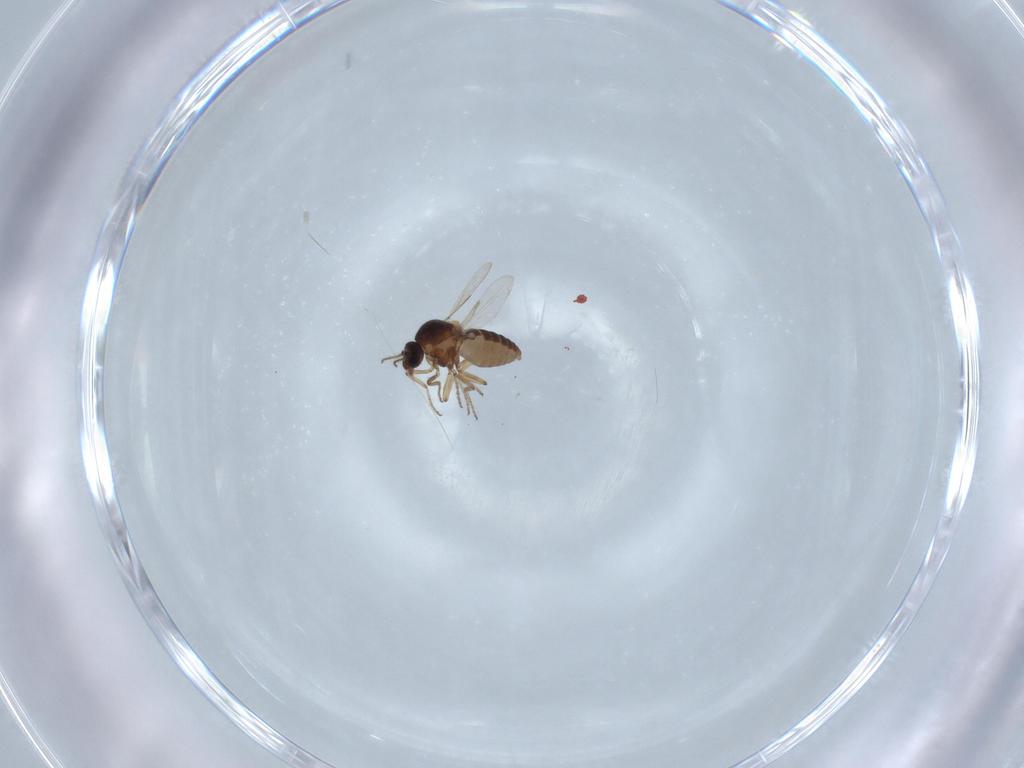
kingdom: Animalia
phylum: Arthropoda
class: Insecta
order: Diptera
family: Ceratopogonidae
